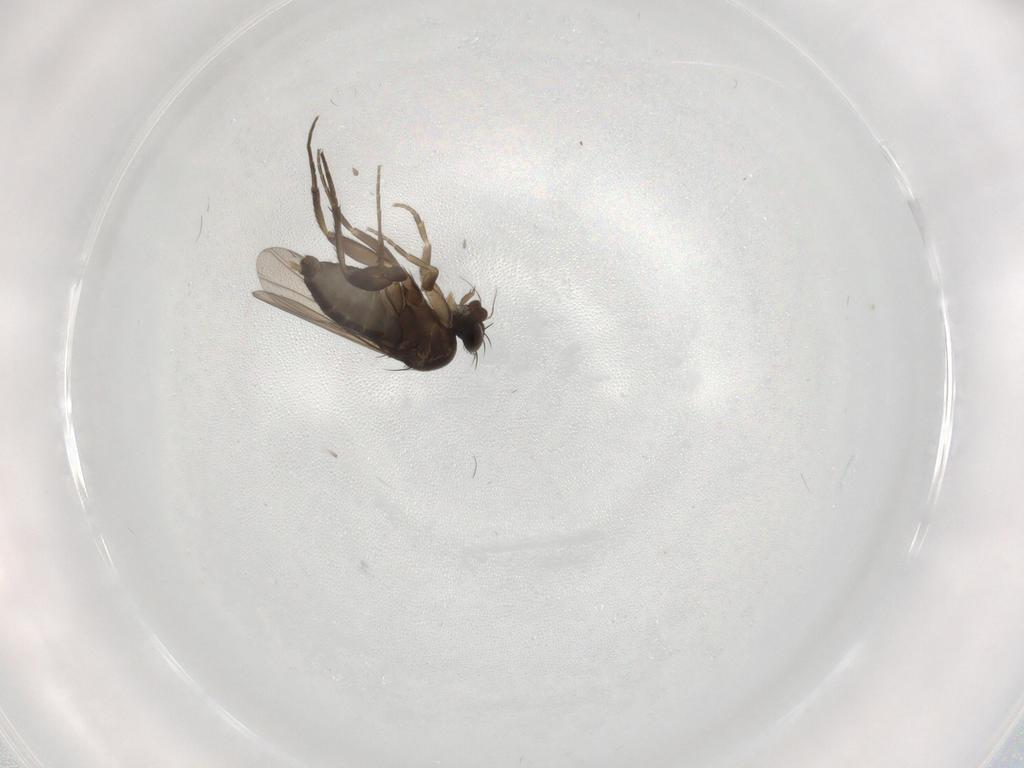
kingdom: Animalia
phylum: Arthropoda
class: Insecta
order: Diptera
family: Phoridae
